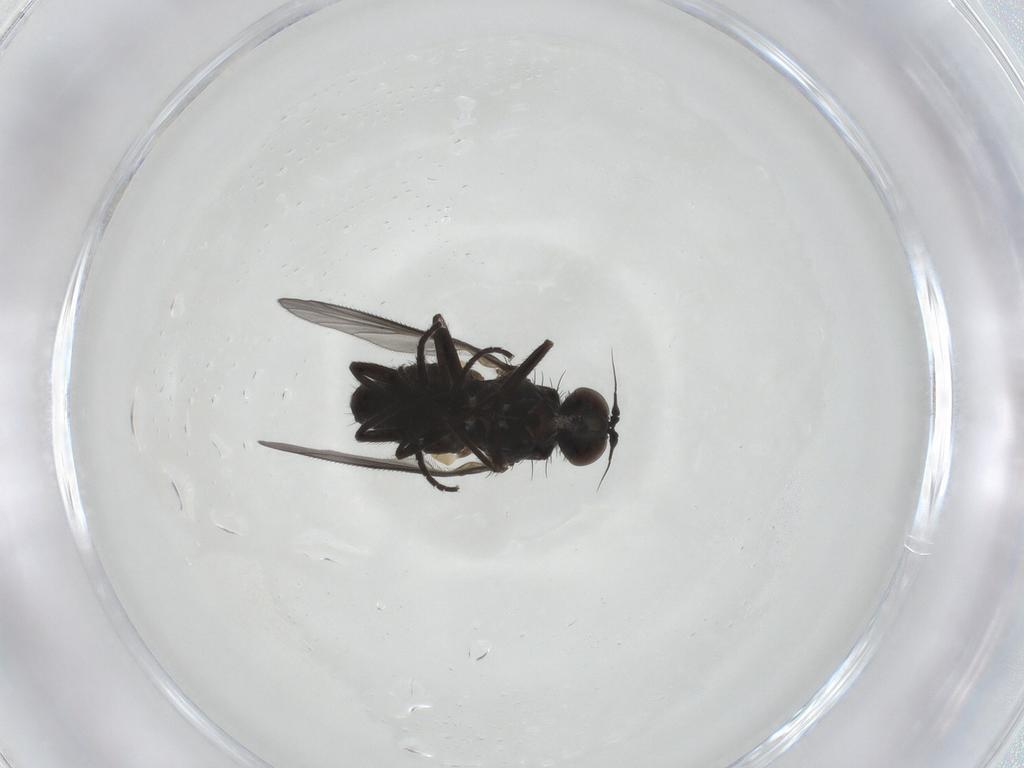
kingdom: Animalia
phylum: Arthropoda
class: Insecta
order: Diptera
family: Dolichopodidae
